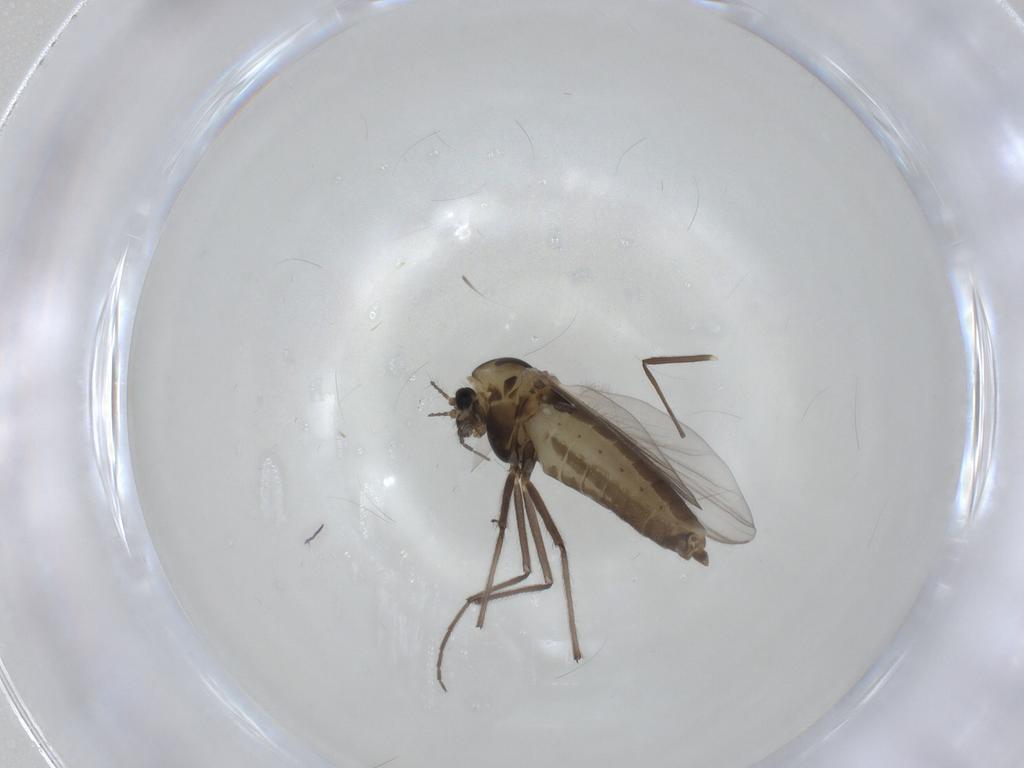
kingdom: Animalia
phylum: Arthropoda
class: Insecta
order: Diptera
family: Chironomidae
